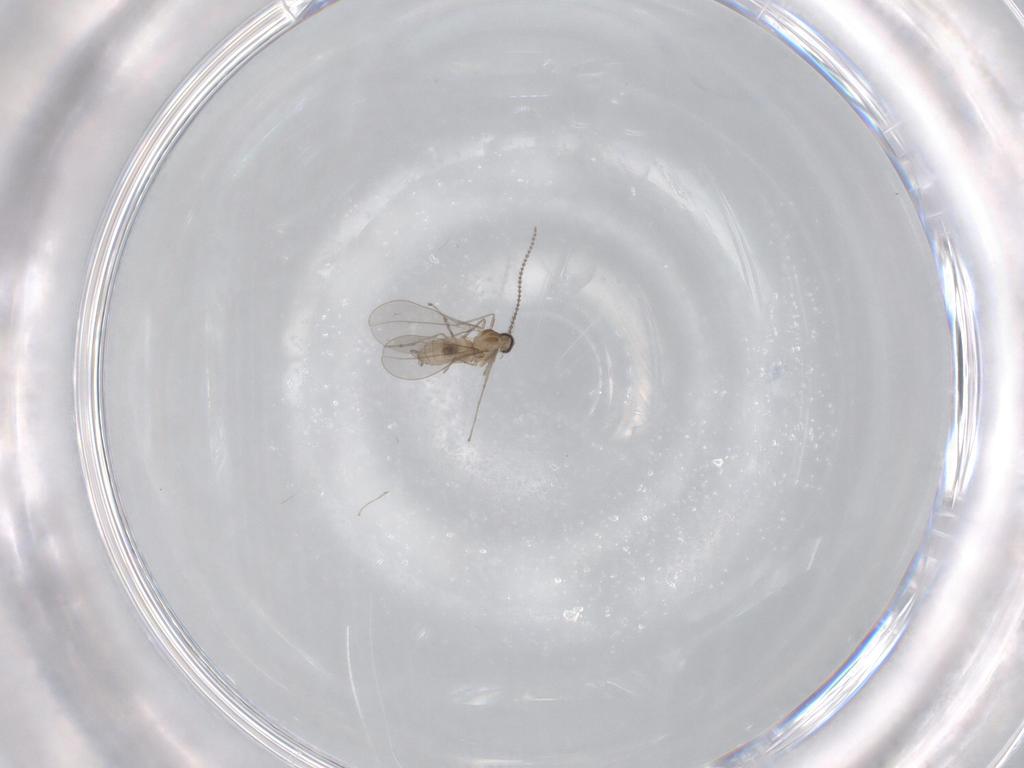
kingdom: Animalia
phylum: Arthropoda
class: Insecta
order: Diptera
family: Cecidomyiidae
